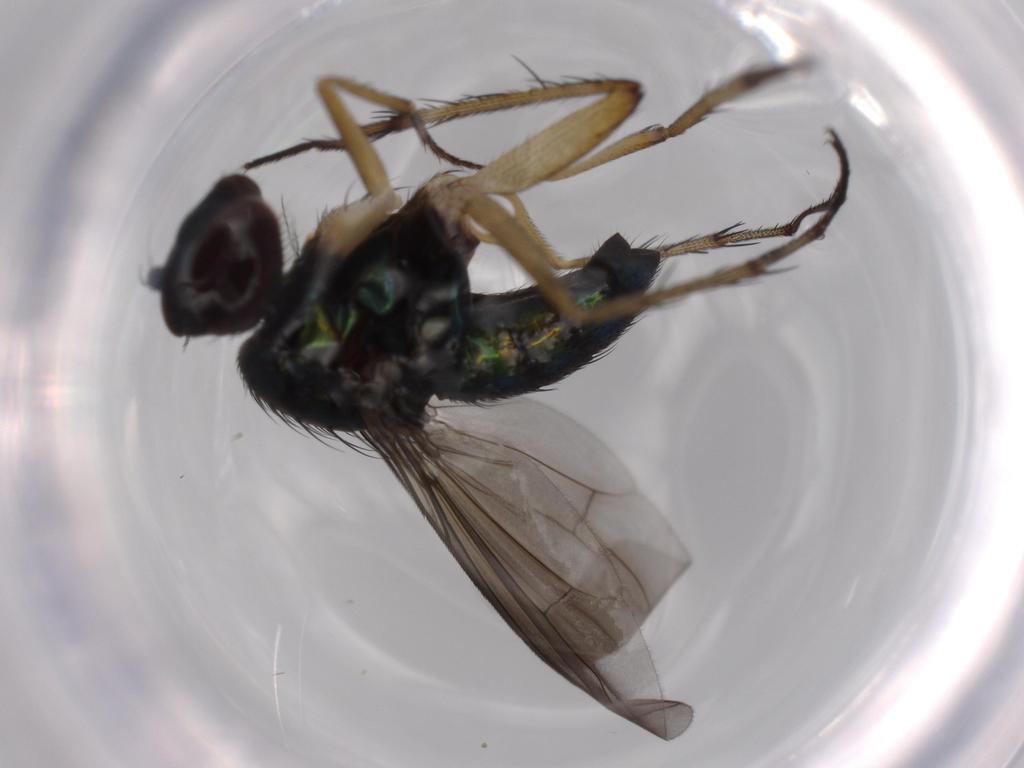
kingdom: Animalia
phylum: Arthropoda
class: Insecta
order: Diptera
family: Dolichopodidae
